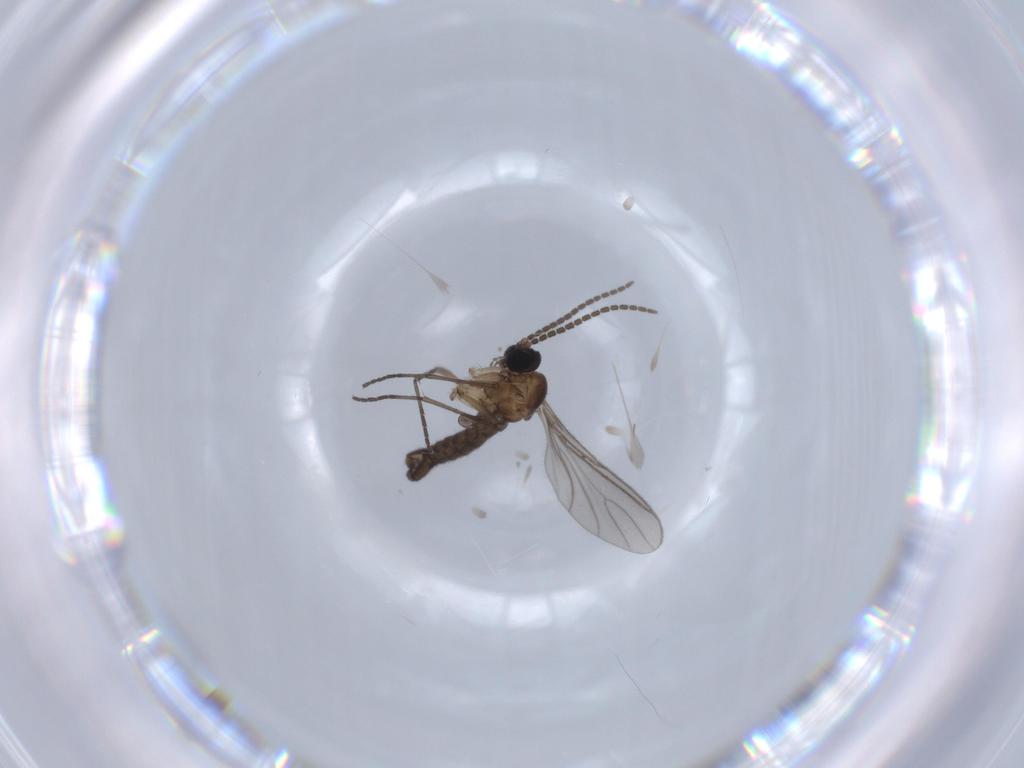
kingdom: Animalia
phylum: Arthropoda
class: Insecta
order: Diptera
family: Sciaridae
